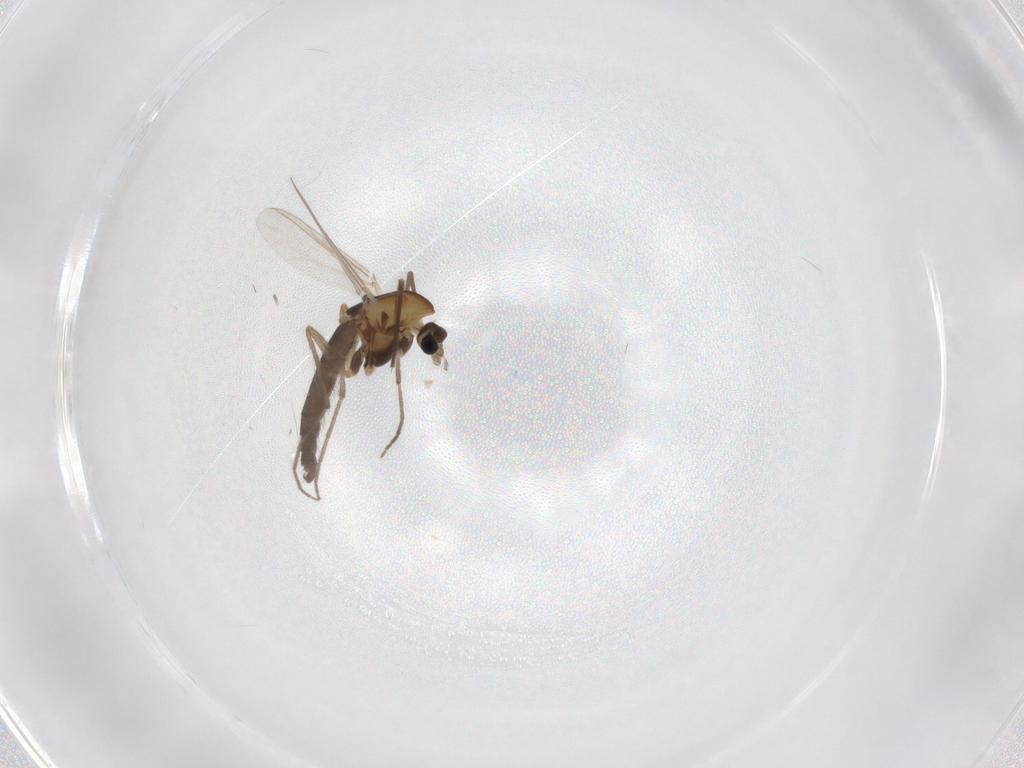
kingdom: Animalia
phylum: Arthropoda
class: Insecta
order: Diptera
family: Chironomidae
